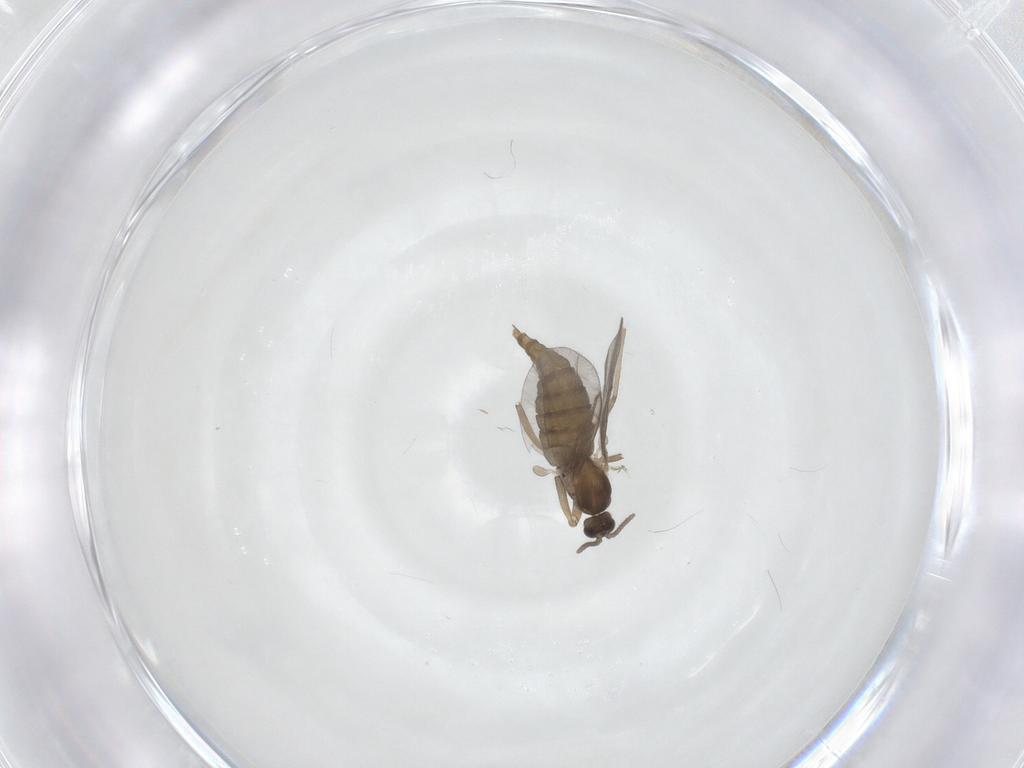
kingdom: Animalia
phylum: Arthropoda
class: Insecta
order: Diptera
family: Cecidomyiidae
